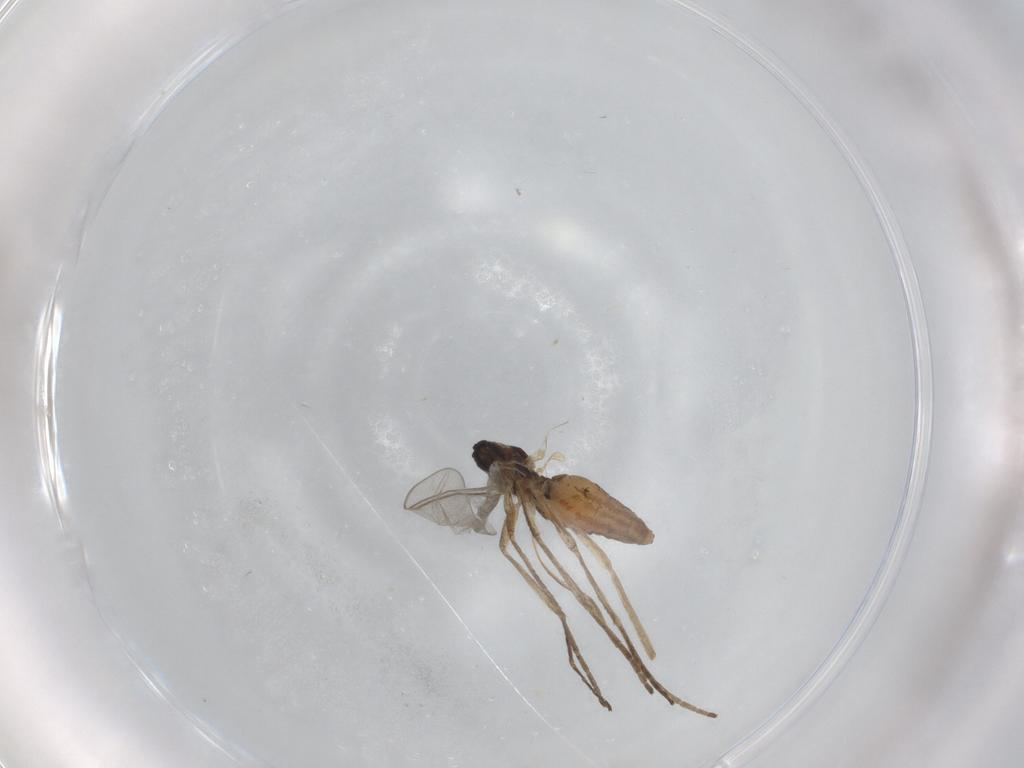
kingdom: Animalia
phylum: Arthropoda
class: Insecta
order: Diptera
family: Cecidomyiidae
